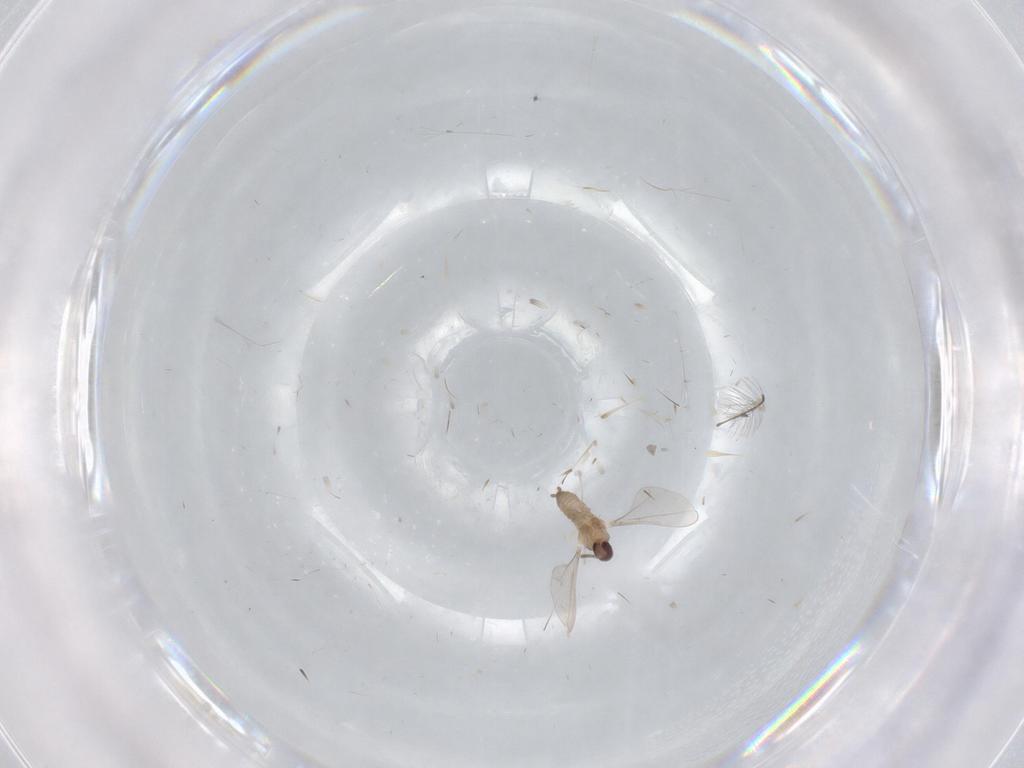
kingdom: Animalia
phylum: Arthropoda
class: Insecta
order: Diptera
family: Cecidomyiidae
